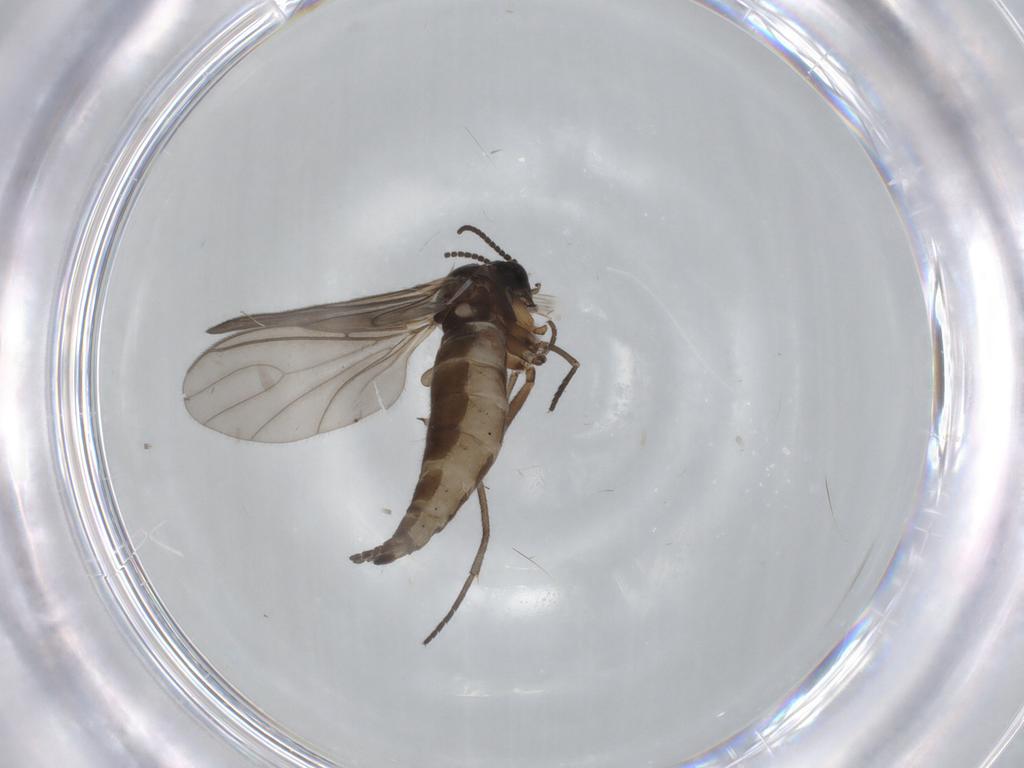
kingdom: Animalia
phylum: Arthropoda
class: Insecta
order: Diptera
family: Sciaridae
